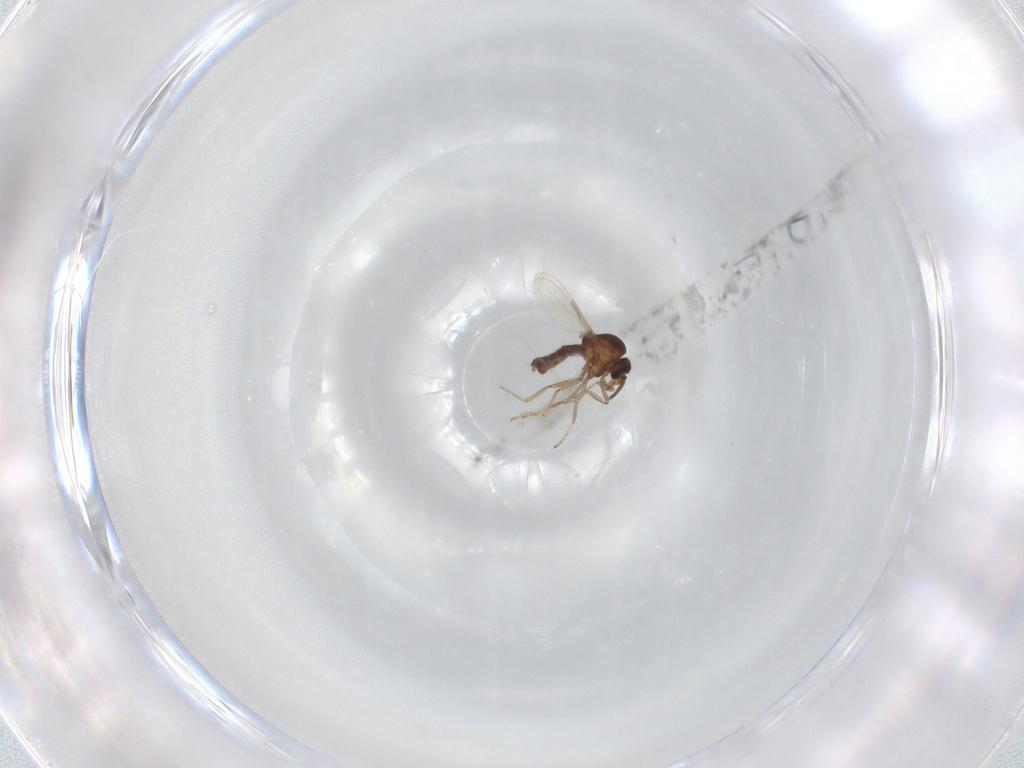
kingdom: Animalia
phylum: Arthropoda
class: Insecta
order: Diptera
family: Ceratopogonidae
